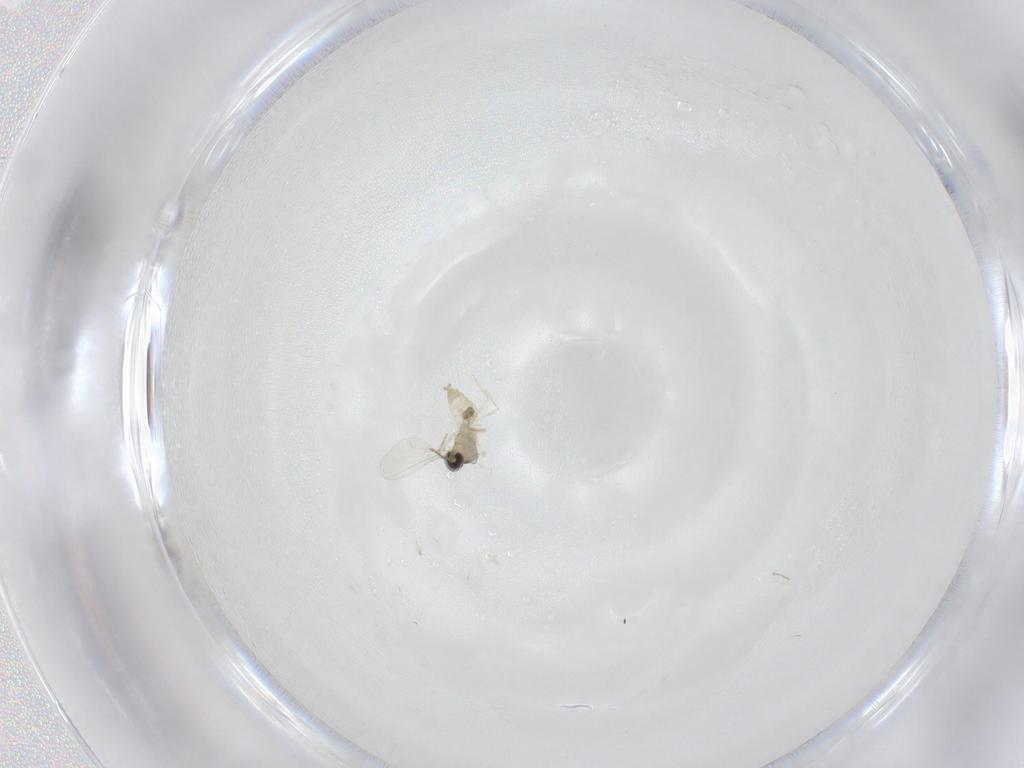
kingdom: Animalia
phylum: Arthropoda
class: Insecta
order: Diptera
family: Cecidomyiidae
